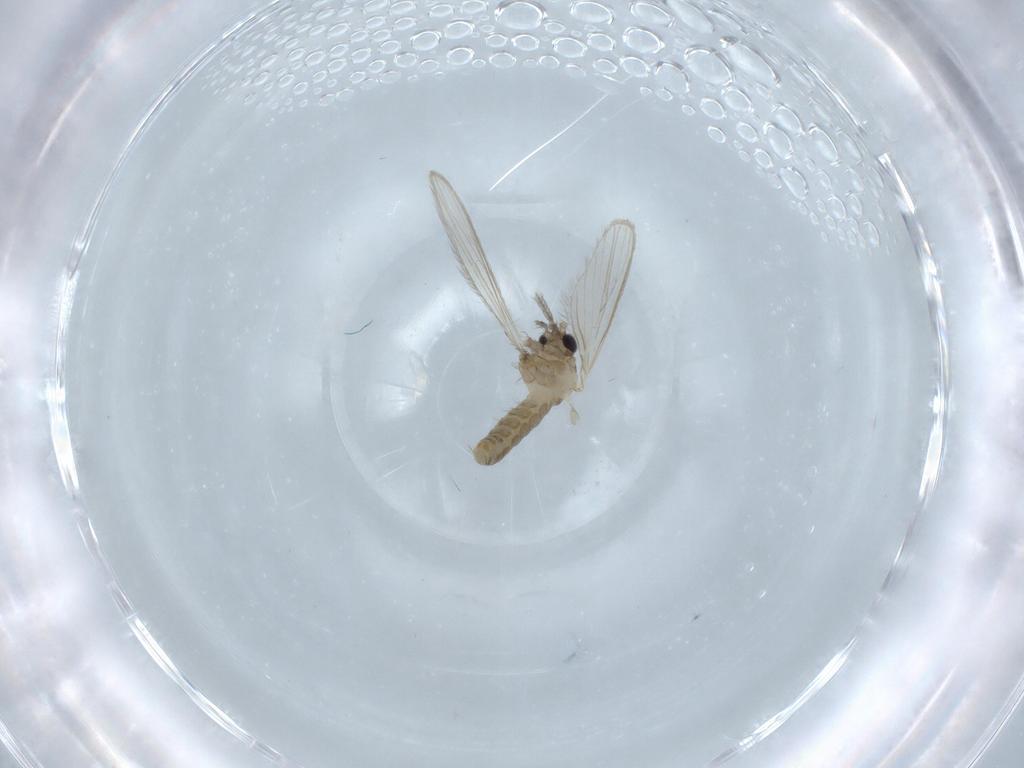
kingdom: Animalia
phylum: Arthropoda
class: Insecta
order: Diptera
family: Psychodidae
